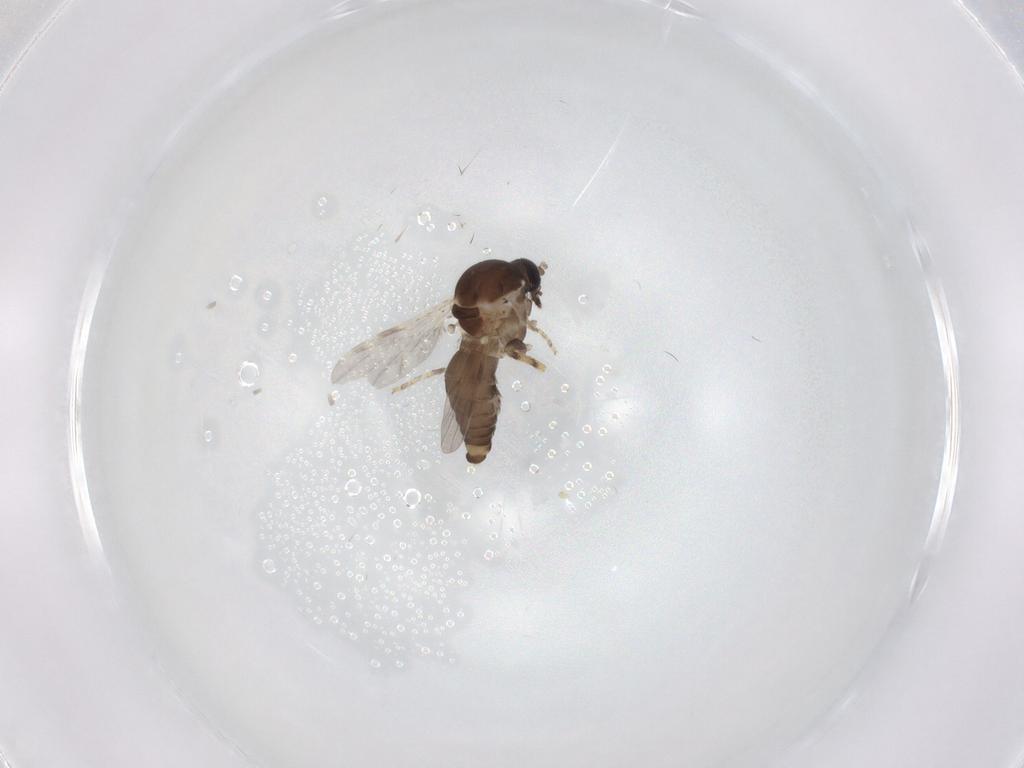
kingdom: Animalia
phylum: Arthropoda
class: Insecta
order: Diptera
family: Ceratopogonidae
